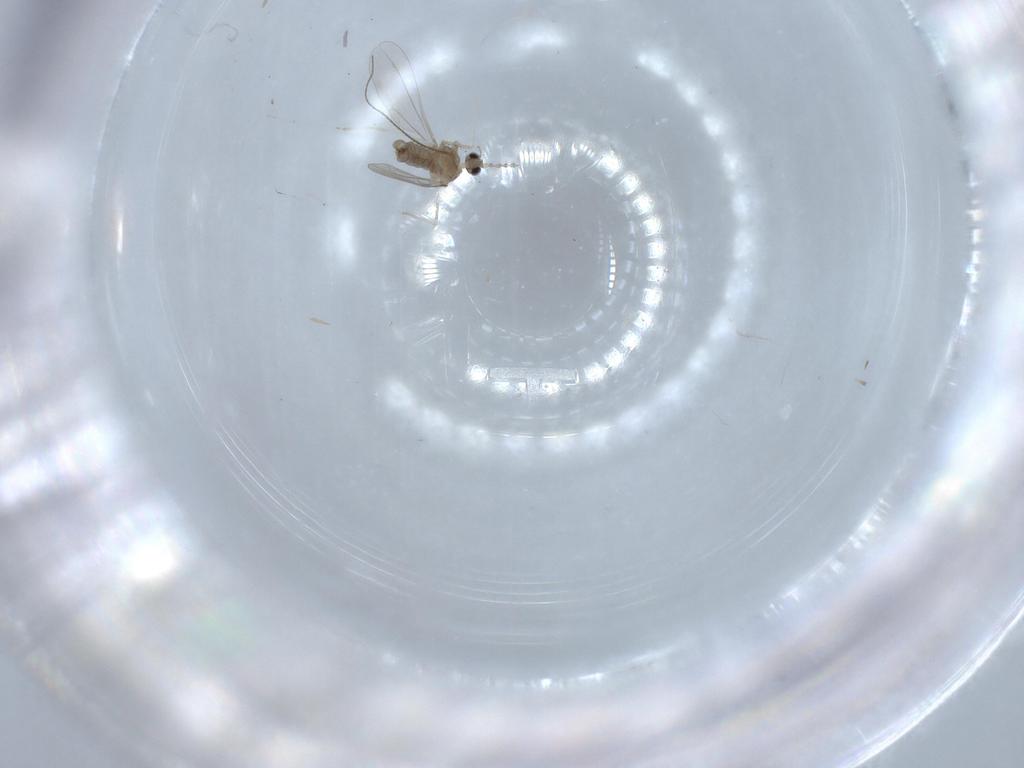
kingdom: Animalia
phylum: Arthropoda
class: Insecta
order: Diptera
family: Cecidomyiidae
